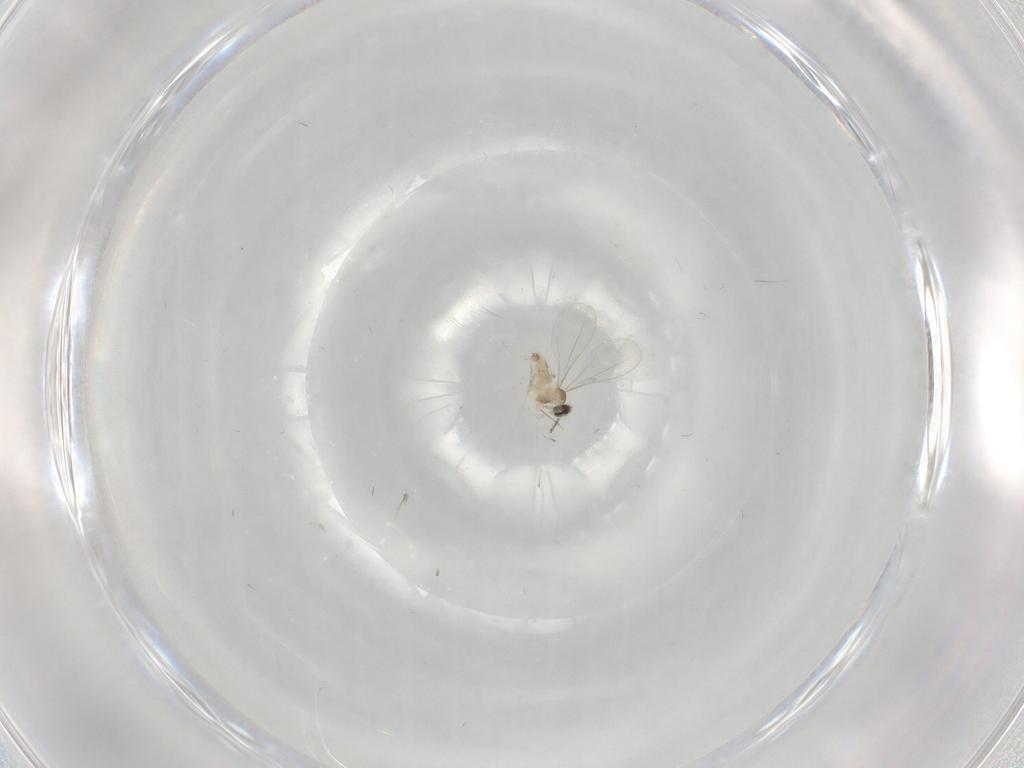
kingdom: Animalia
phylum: Arthropoda
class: Insecta
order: Diptera
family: Cecidomyiidae
